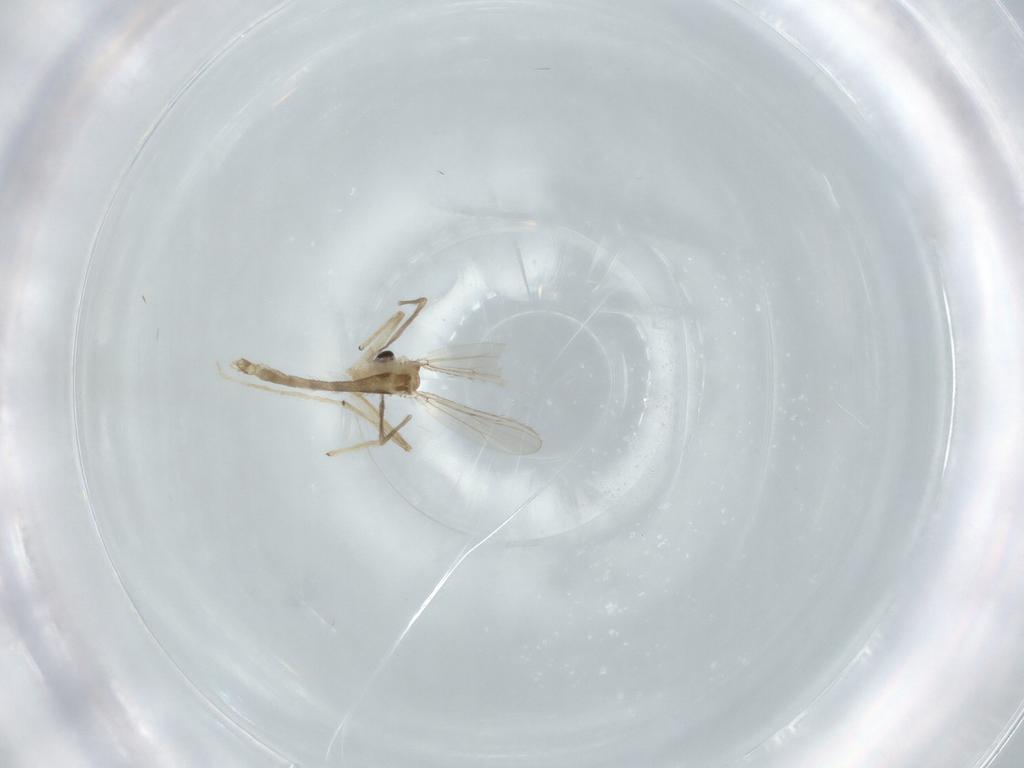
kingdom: Animalia
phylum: Arthropoda
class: Insecta
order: Diptera
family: Chironomidae
